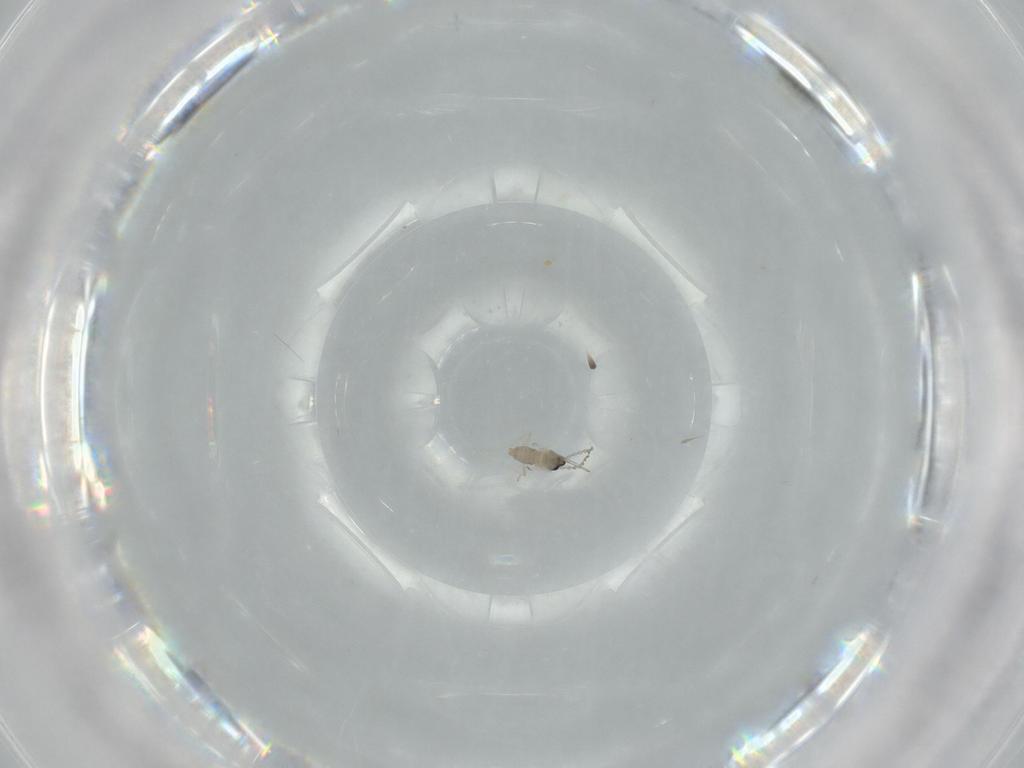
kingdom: Animalia
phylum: Arthropoda
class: Insecta
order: Diptera
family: Cecidomyiidae
